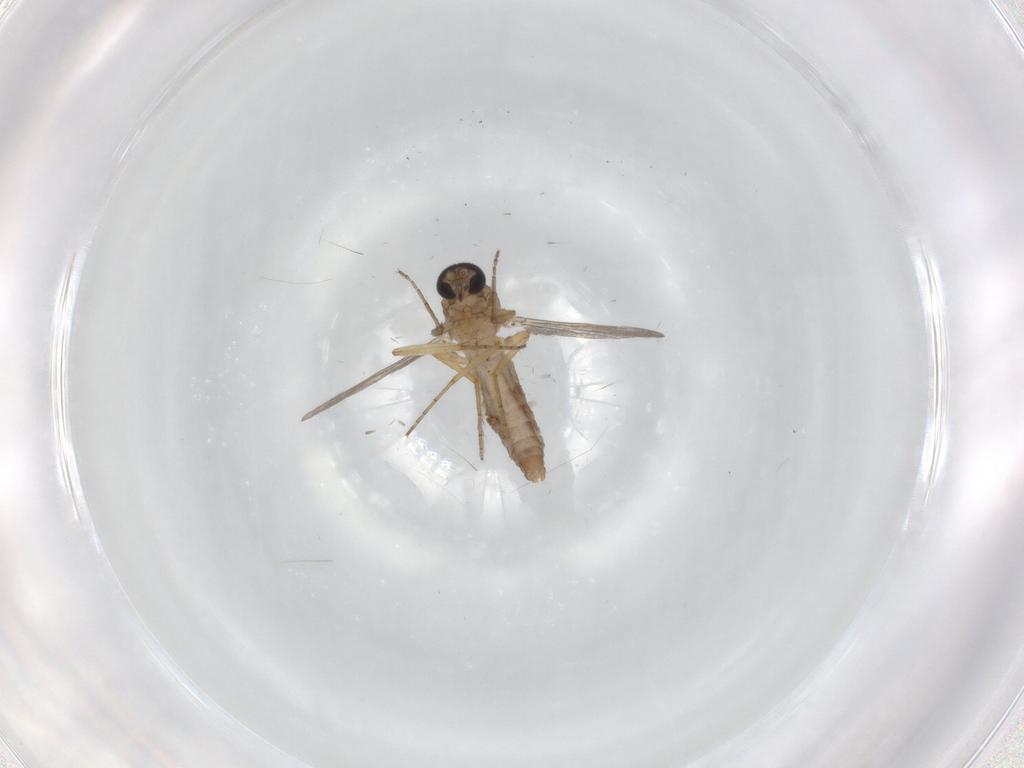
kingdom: Animalia
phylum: Arthropoda
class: Insecta
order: Diptera
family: Ceratopogonidae
